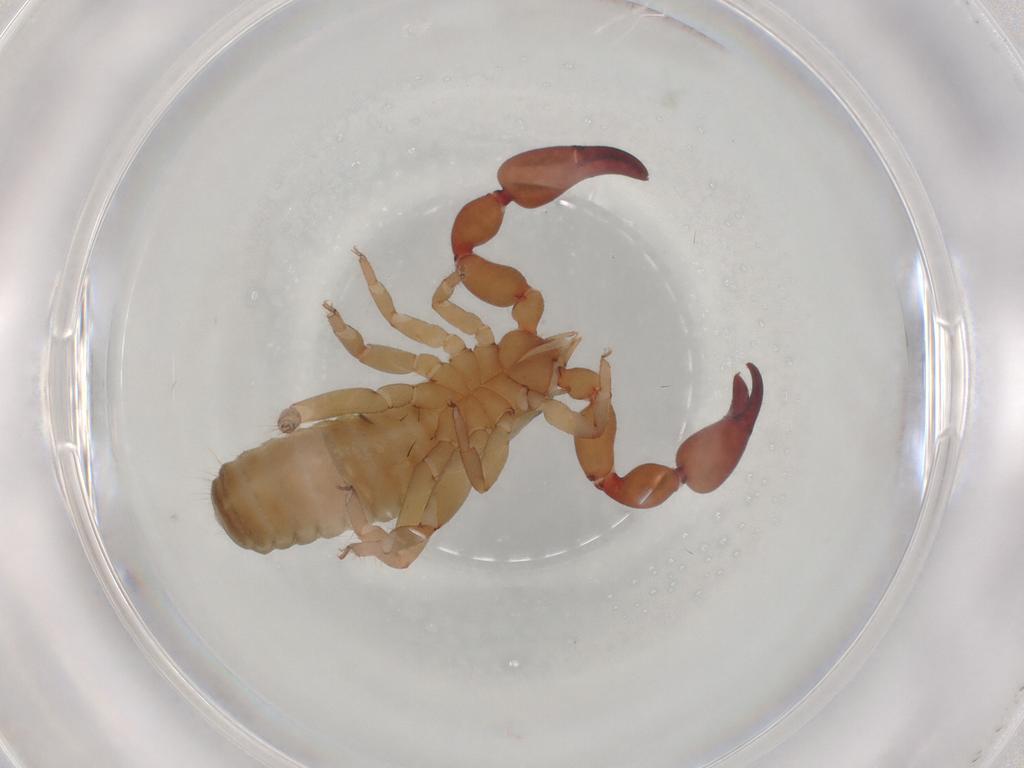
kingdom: Animalia
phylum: Arthropoda
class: Arachnida
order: Pseudoscorpiones
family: Atemnidae
